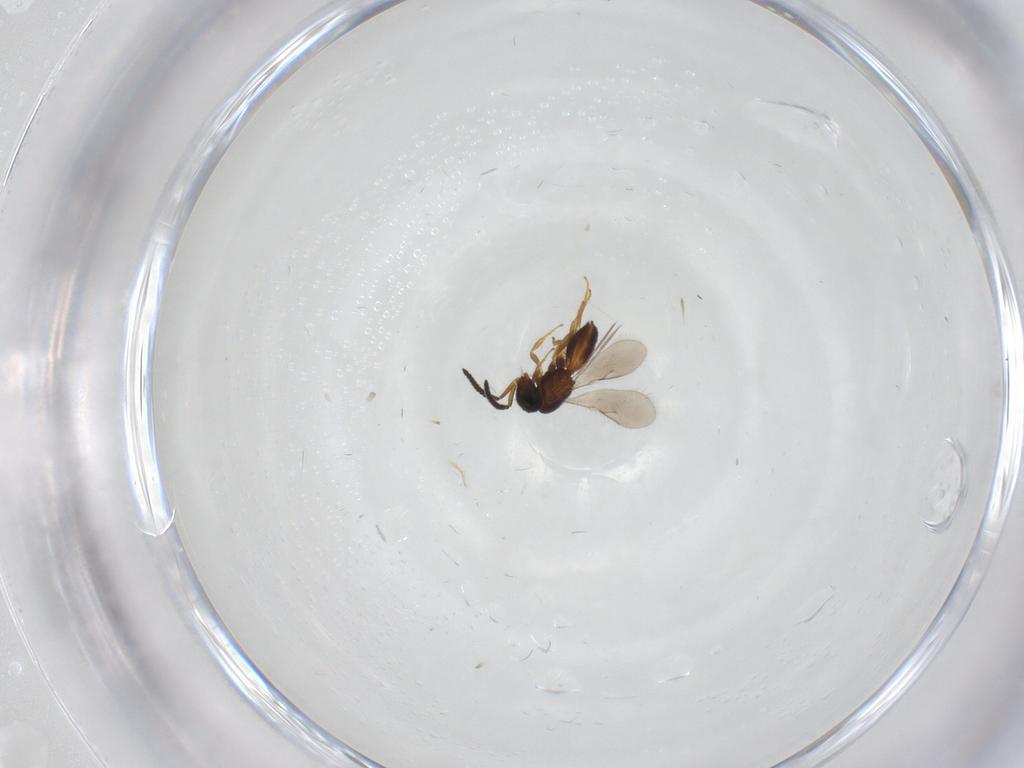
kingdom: Animalia
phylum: Arthropoda
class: Insecta
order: Hymenoptera
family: Scelionidae
